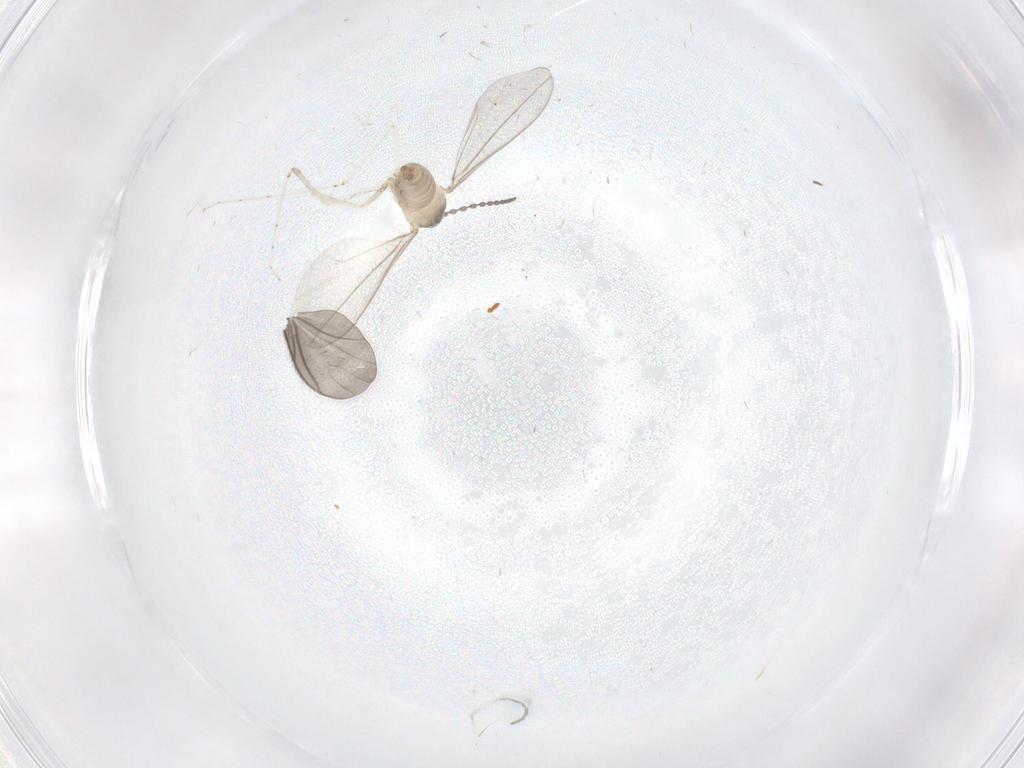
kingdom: Animalia
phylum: Arthropoda
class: Insecta
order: Diptera
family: Cecidomyiidae
